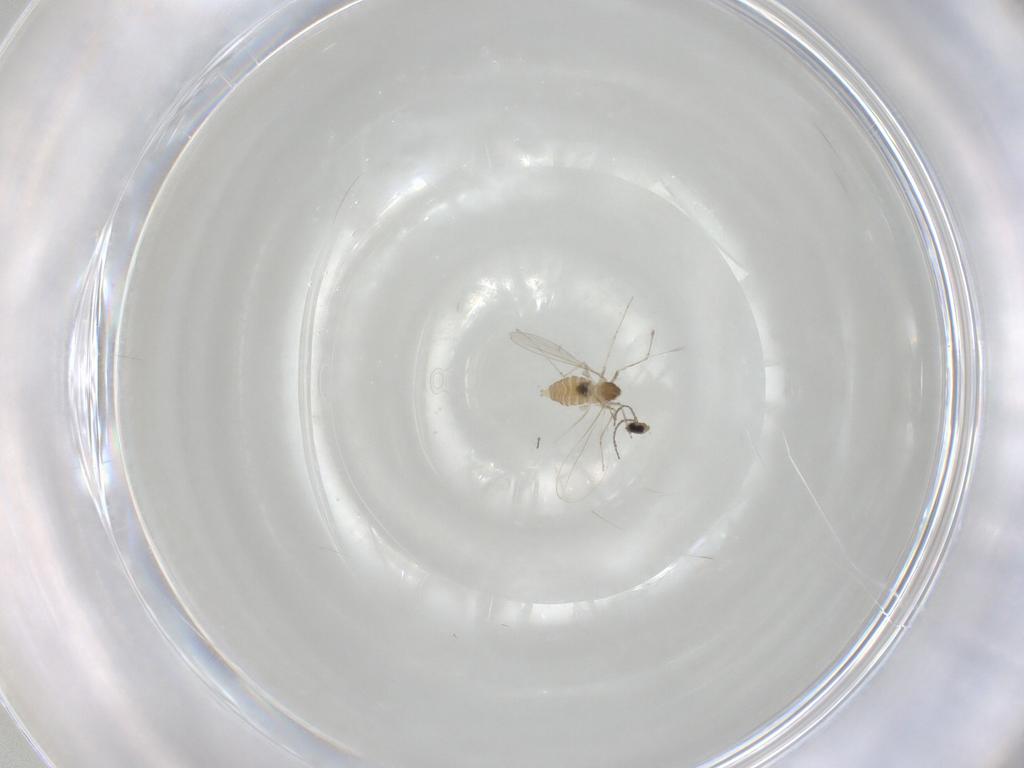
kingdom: Animalia
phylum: Arthropoda
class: Insecta
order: Diptera
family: Cecidomyiidae
